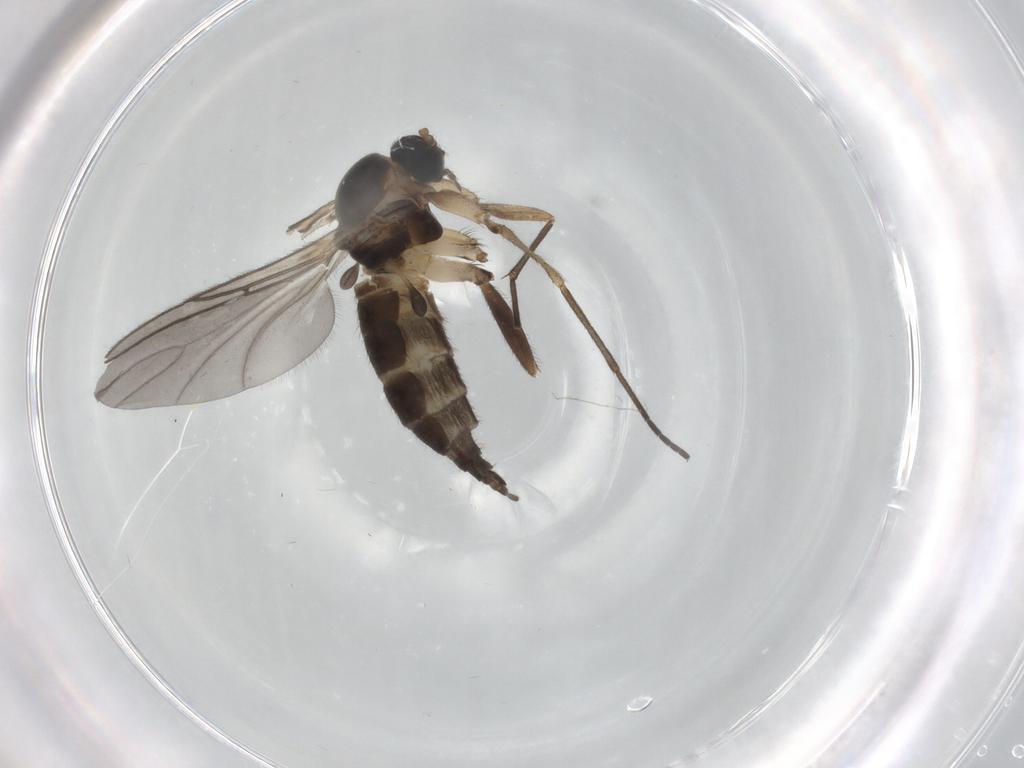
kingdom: Animalia
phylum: Arthropoda
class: Insecta
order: Diptera
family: Sciaridae
